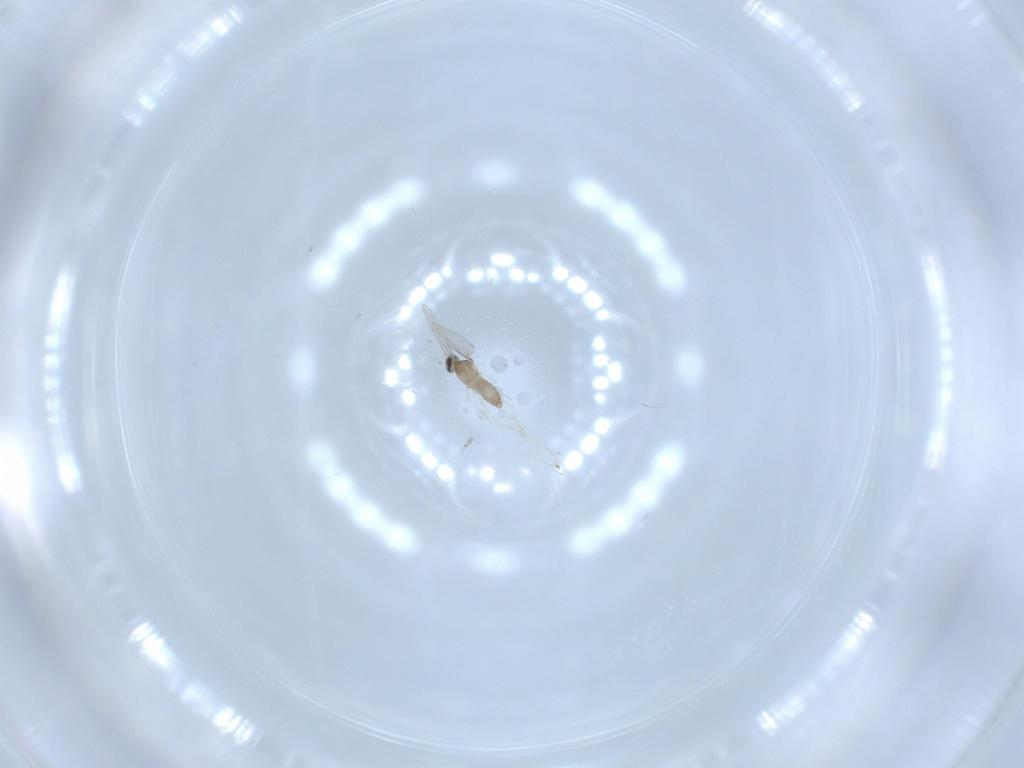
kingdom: Animalia
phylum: Arthropoda
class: Insecta
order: Diptera
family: Cecidomyiidae
